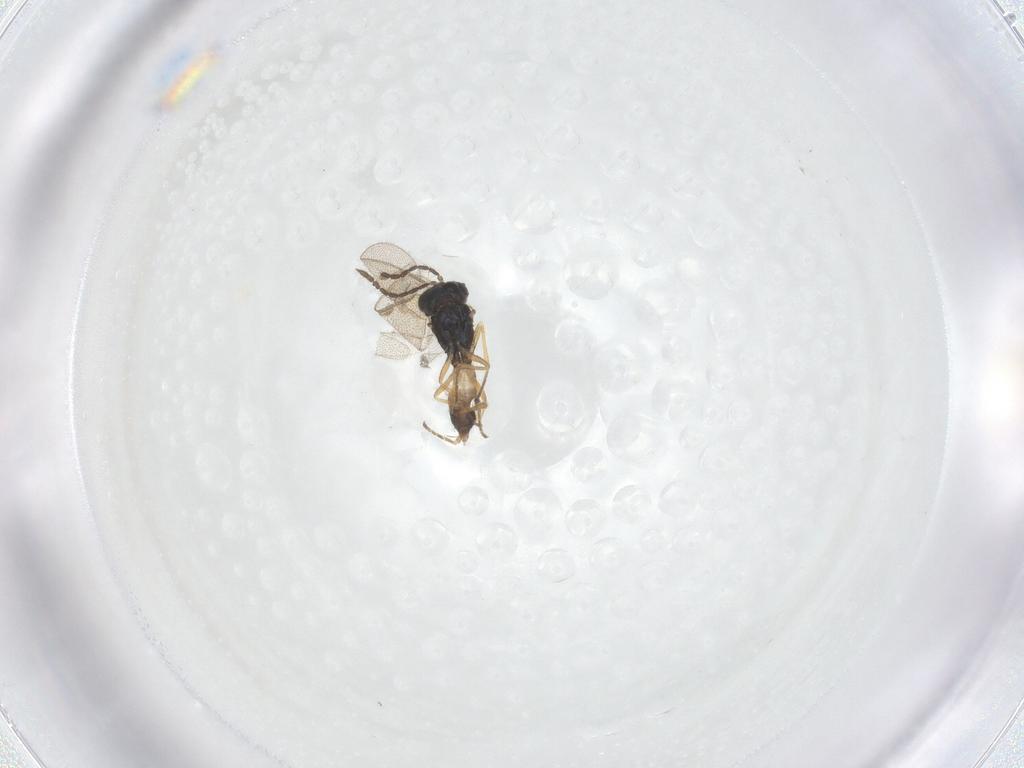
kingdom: Animalia
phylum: Arthropoda
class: Insecta
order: Hymenoptera
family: Pteromalidae
